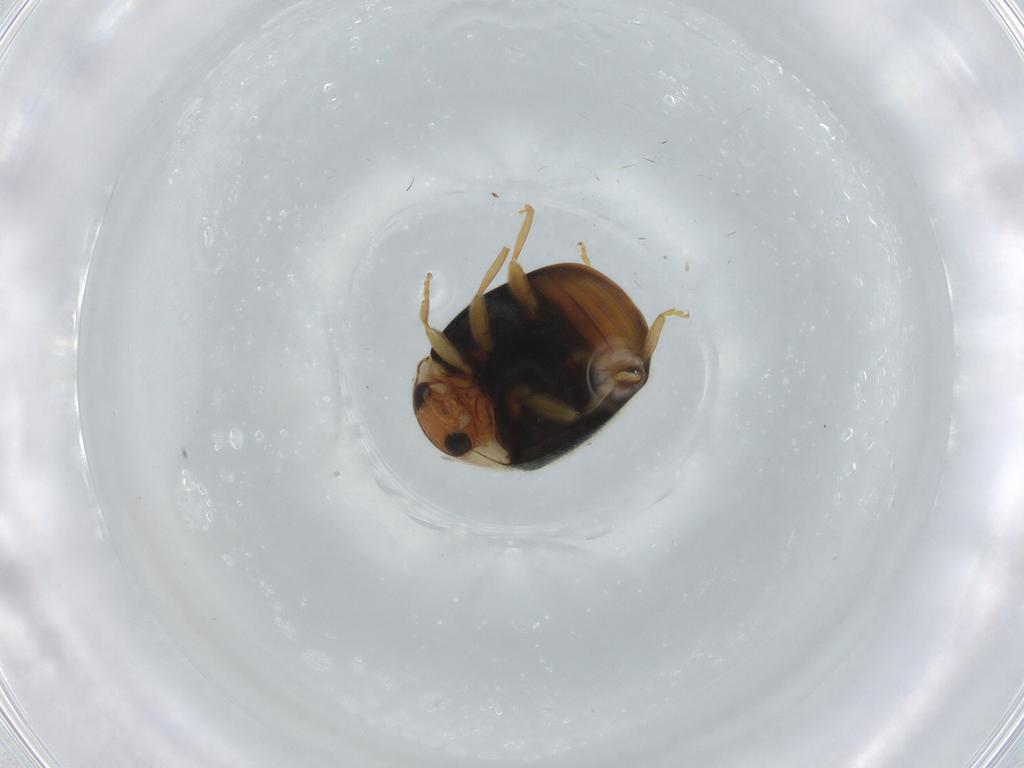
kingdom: Animalia
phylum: Arthropoda
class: Insecta
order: Coleoptera
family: Coccinellidae
